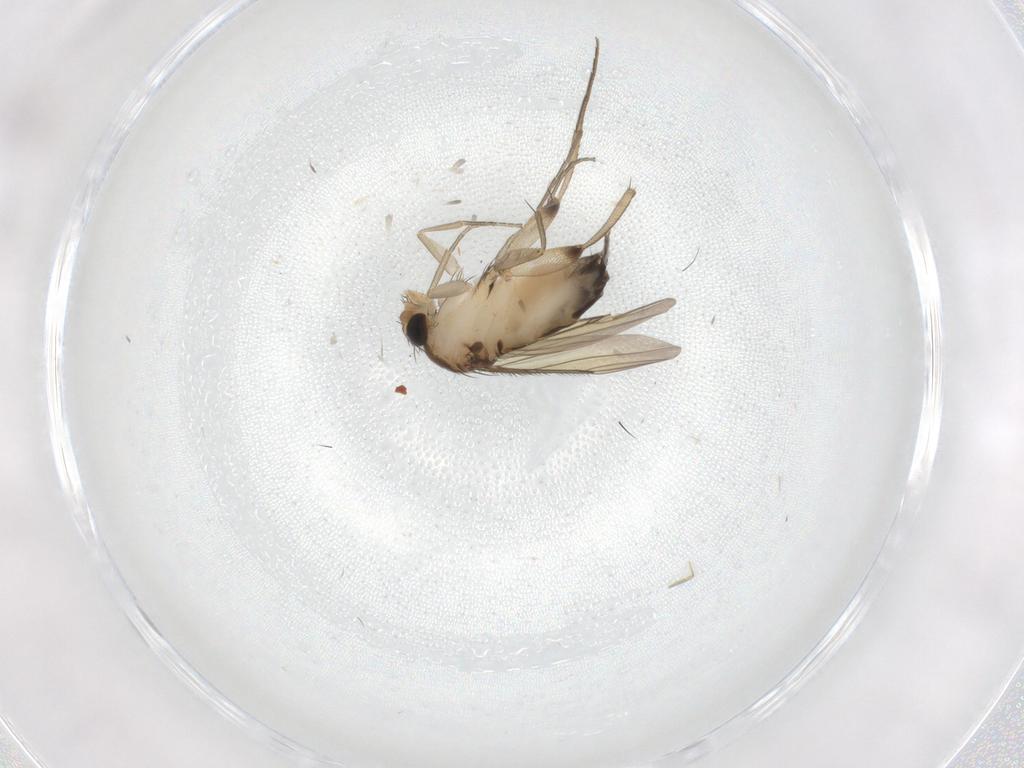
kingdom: Animalia
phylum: Arthropoda
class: Insecta
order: Diptera
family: Phoridae
